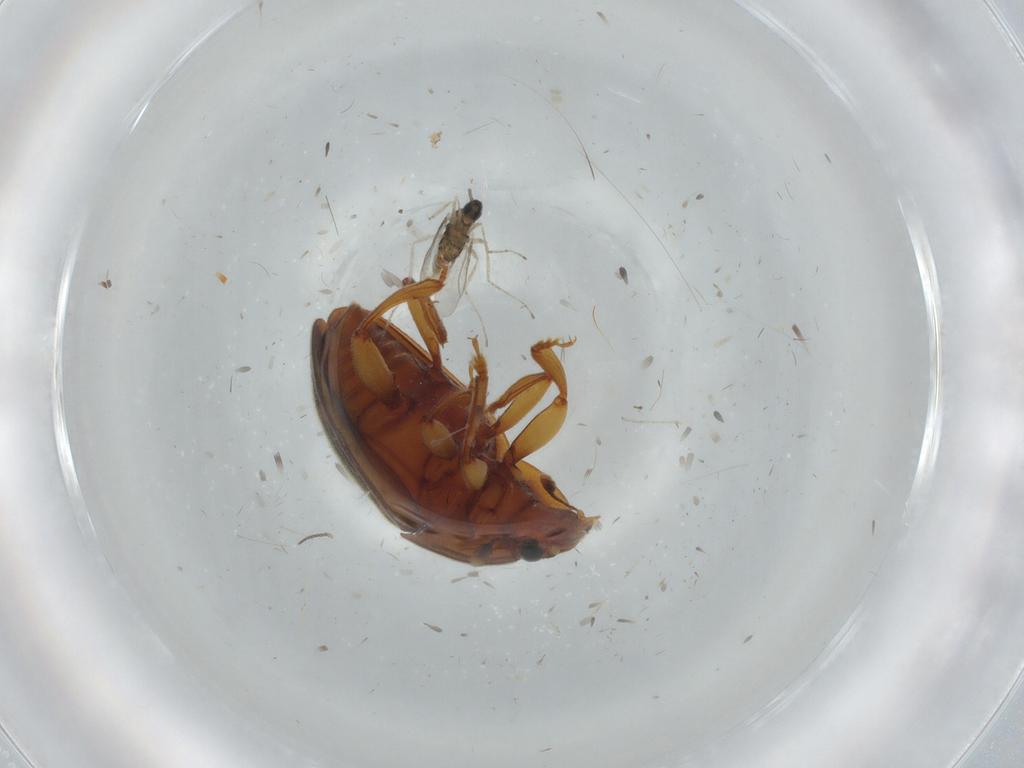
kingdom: Animalia
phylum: Arthropoda
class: Insecta
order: Diptera
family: Cecidomyiidae
